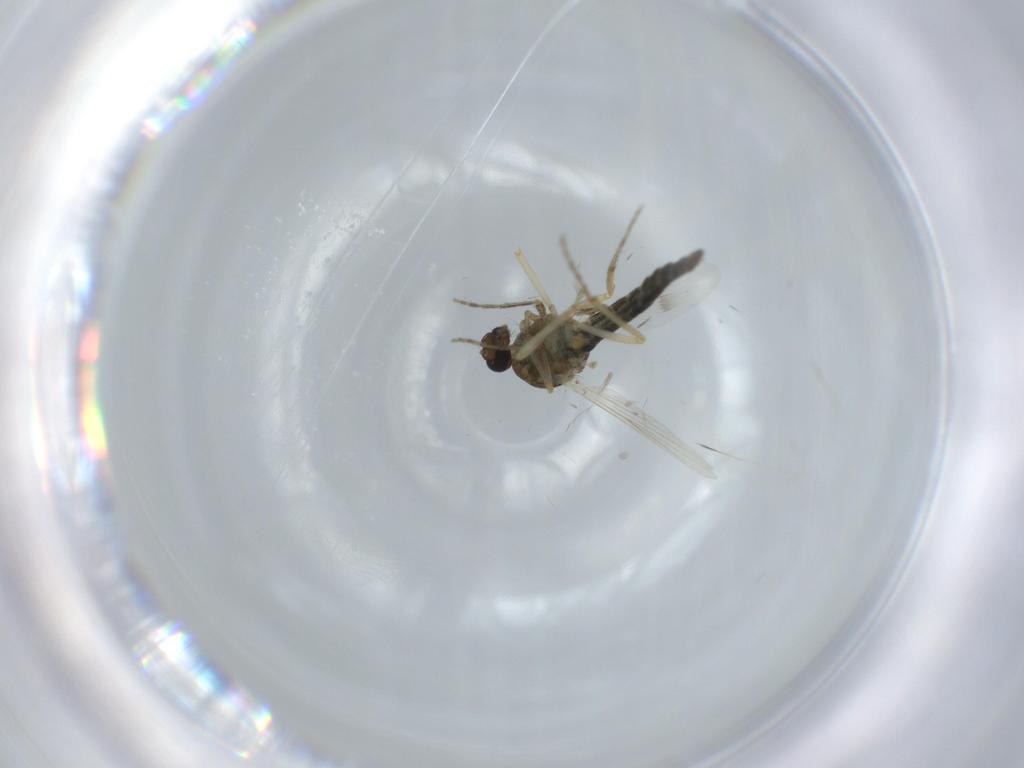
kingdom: Animalia
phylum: Arthropoda
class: Insecta
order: Diptera
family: Ceratopogonidae
